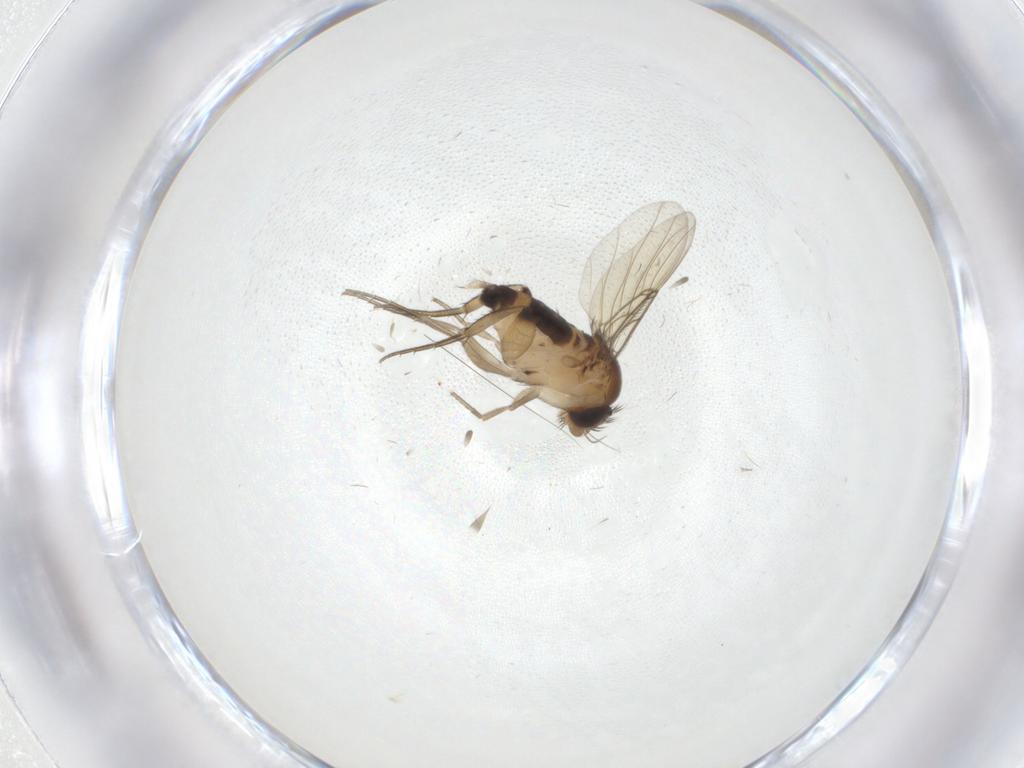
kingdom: Animalia
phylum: Arthropoda
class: Insecta
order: Diptera
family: Phoridae
